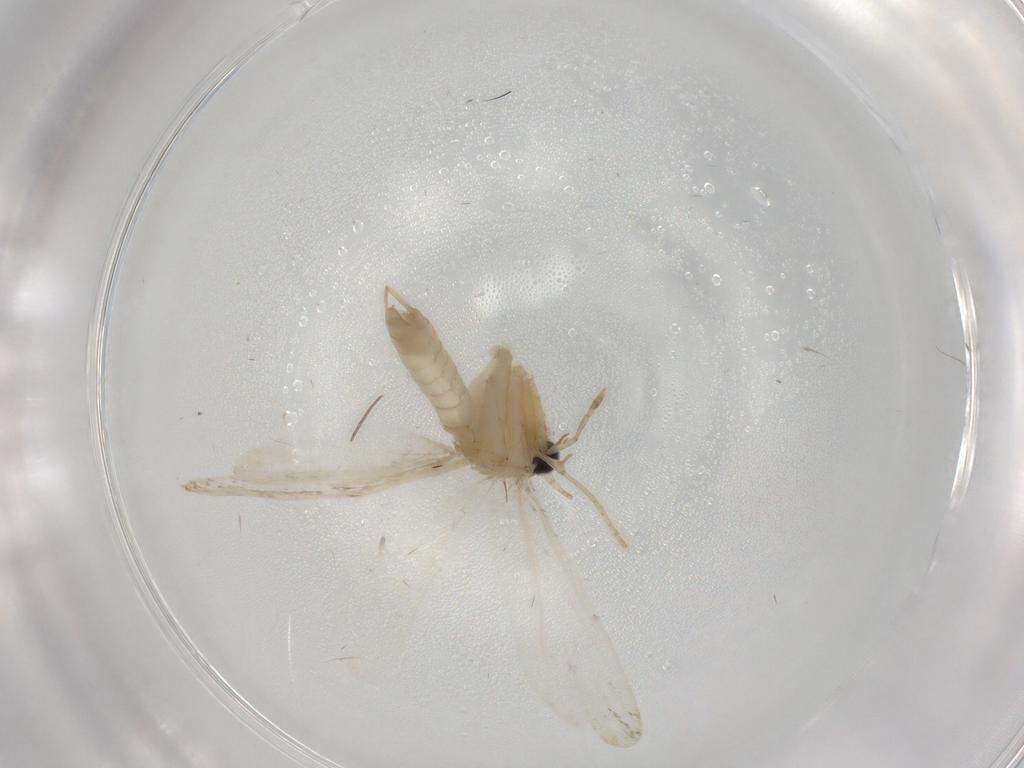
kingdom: Animalia
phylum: Arthropoda
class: Insecta
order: Lepidoptera
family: Psychidae
